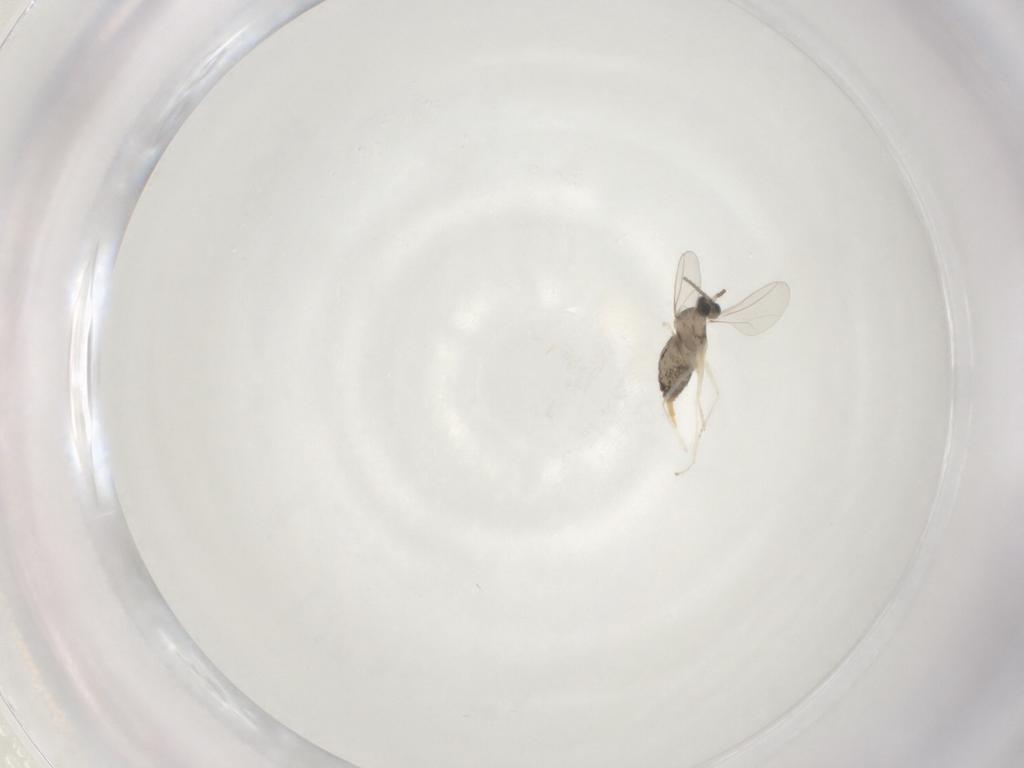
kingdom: Animalia
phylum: Arthropoda
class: Insecta
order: Diptera
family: Cecidomyiidae
